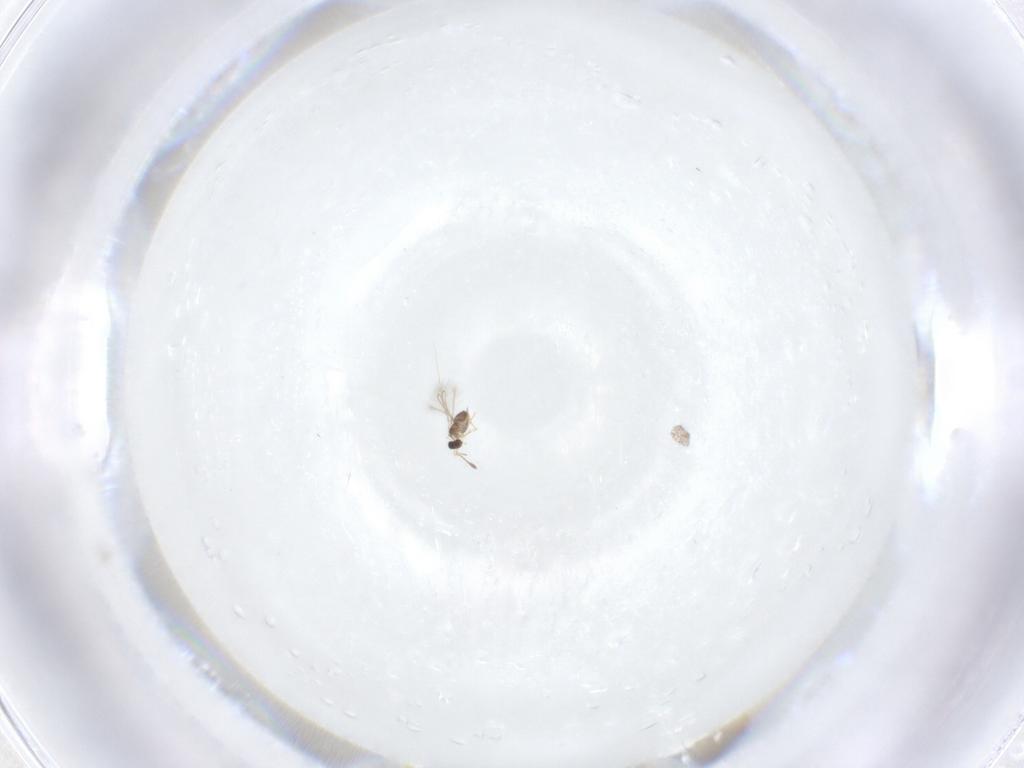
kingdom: Animalia
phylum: Arthropoda
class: Insecta
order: Hymenoptera
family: Mymaridae
